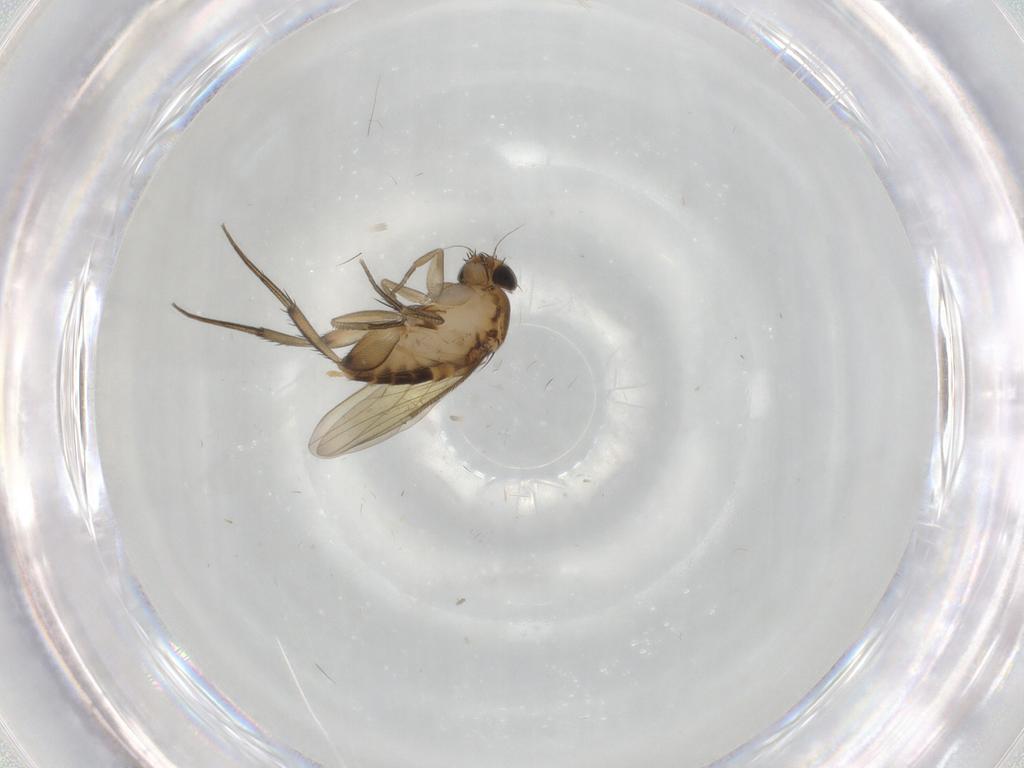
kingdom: Animalia
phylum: Arthropoda
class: Insecta
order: Diptera
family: Phoridae
